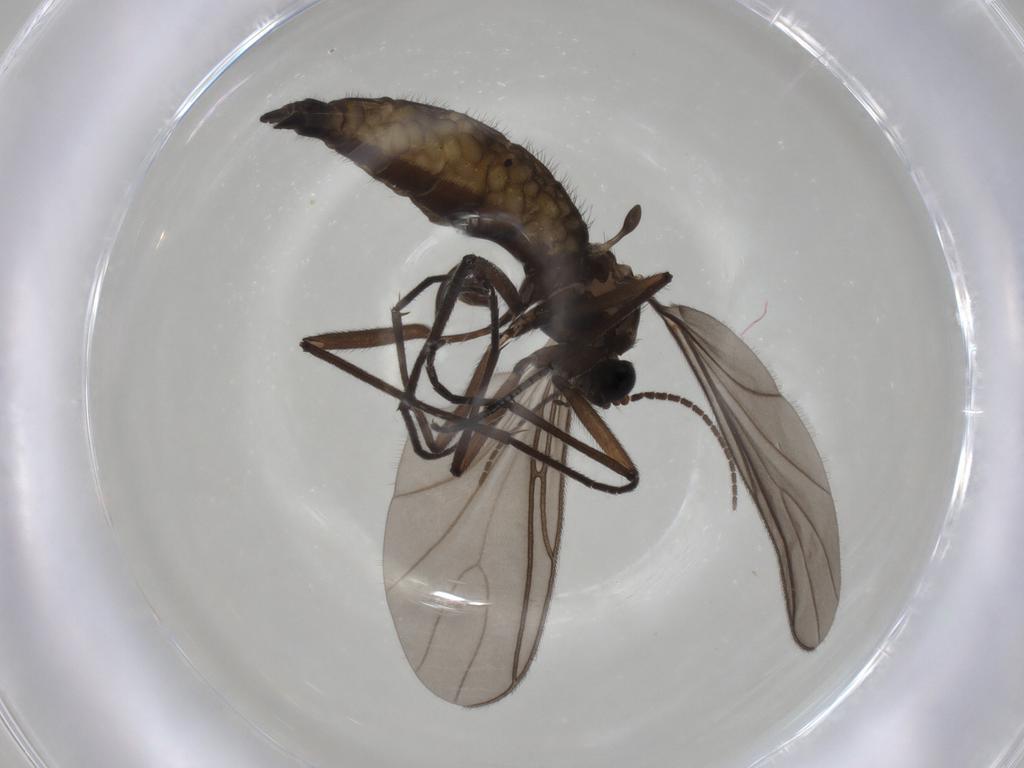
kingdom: Animalia
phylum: Arthropoda
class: Insecta
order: Diptera
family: Sciaridae
